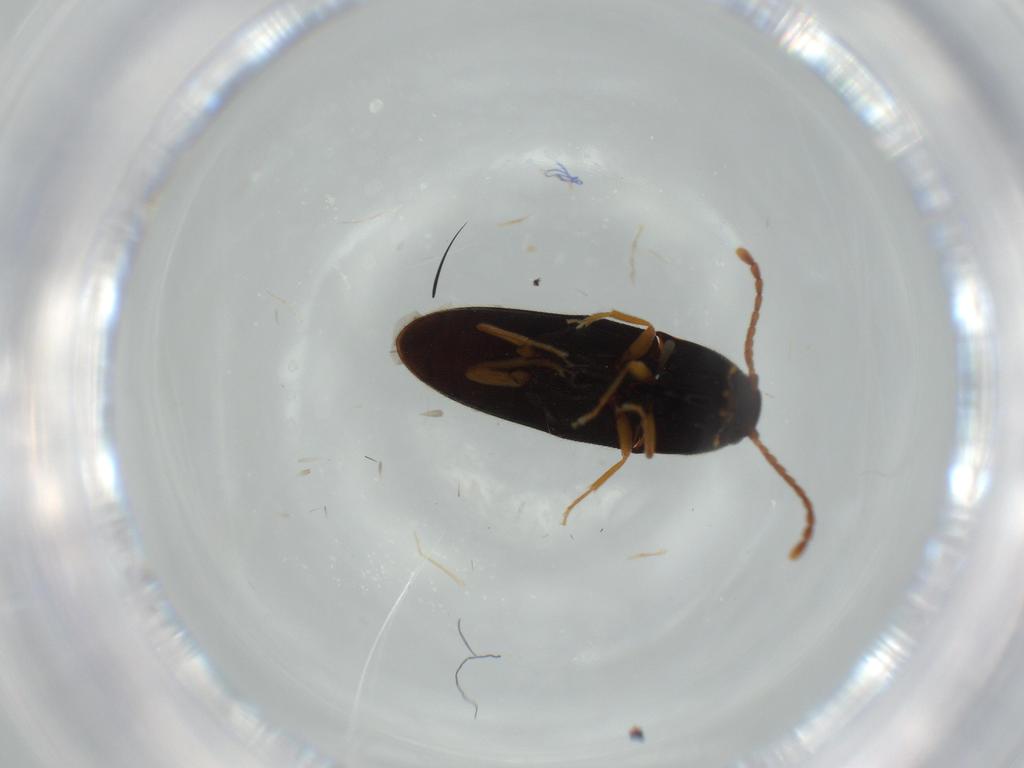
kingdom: Animalia
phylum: Arthropoda
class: Insecta
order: Coleoptera
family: Elateridae
